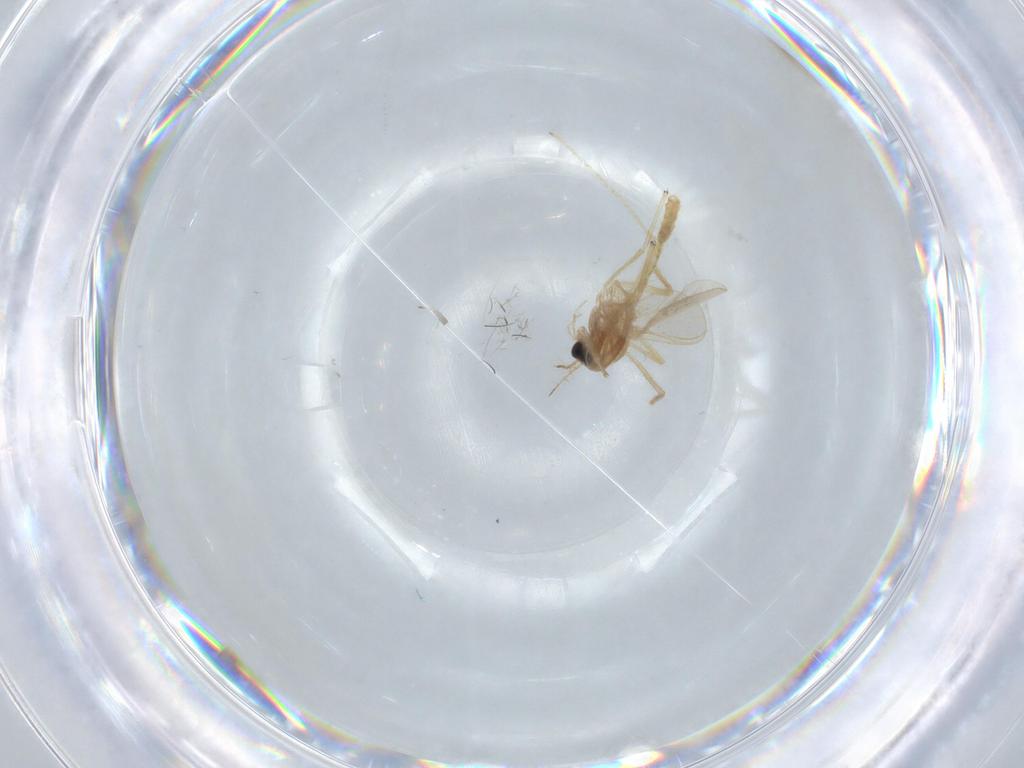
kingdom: Animalia
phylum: Arthropoda
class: Insecta
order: Diptera
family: Chironomidae
